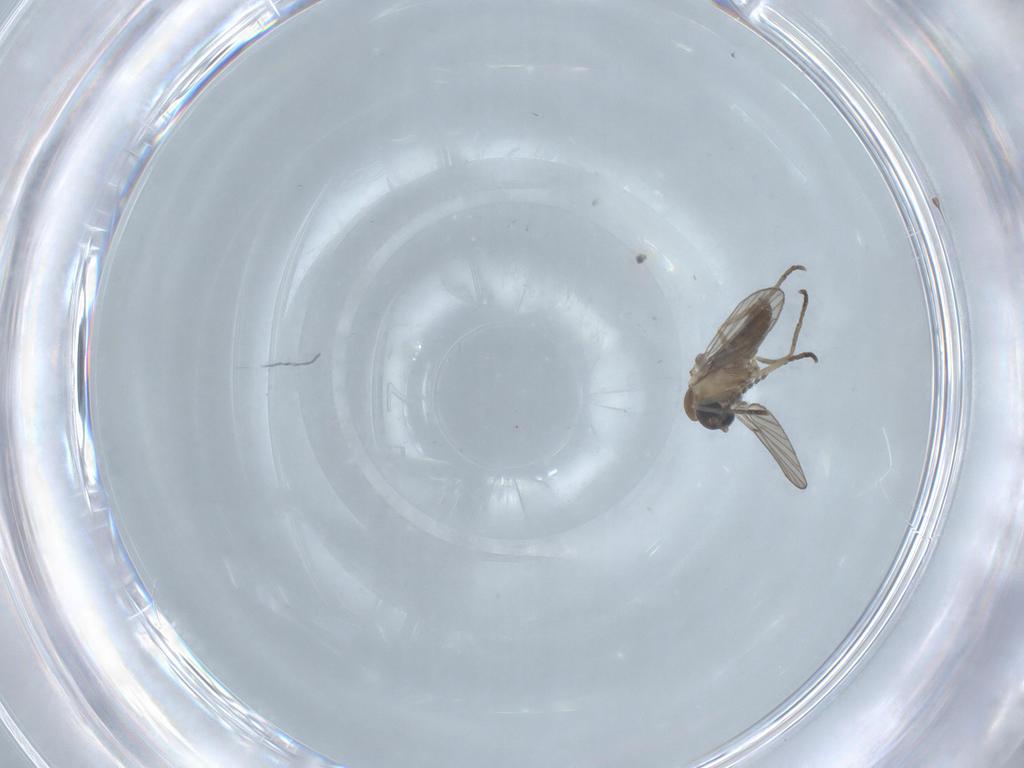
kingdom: Animalia
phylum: Arthropoda
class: Insecta
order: Diptera
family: Psychodidae
